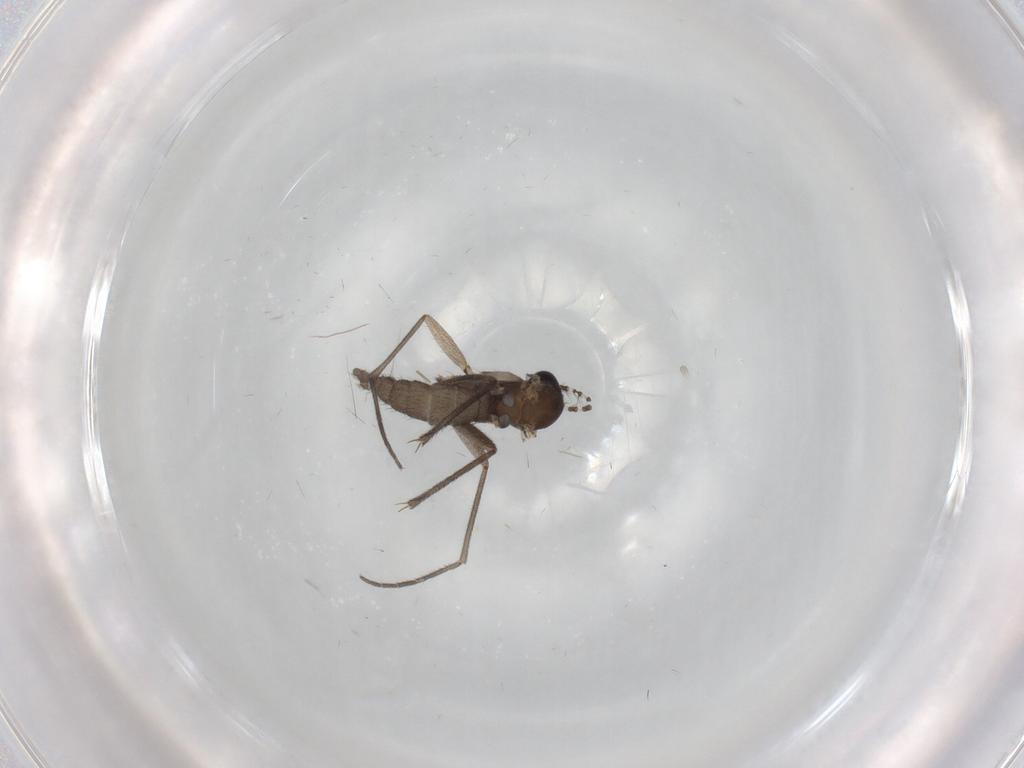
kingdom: Animalia
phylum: Arthropoda
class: Insecta
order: Diptera
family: Sciaridae
